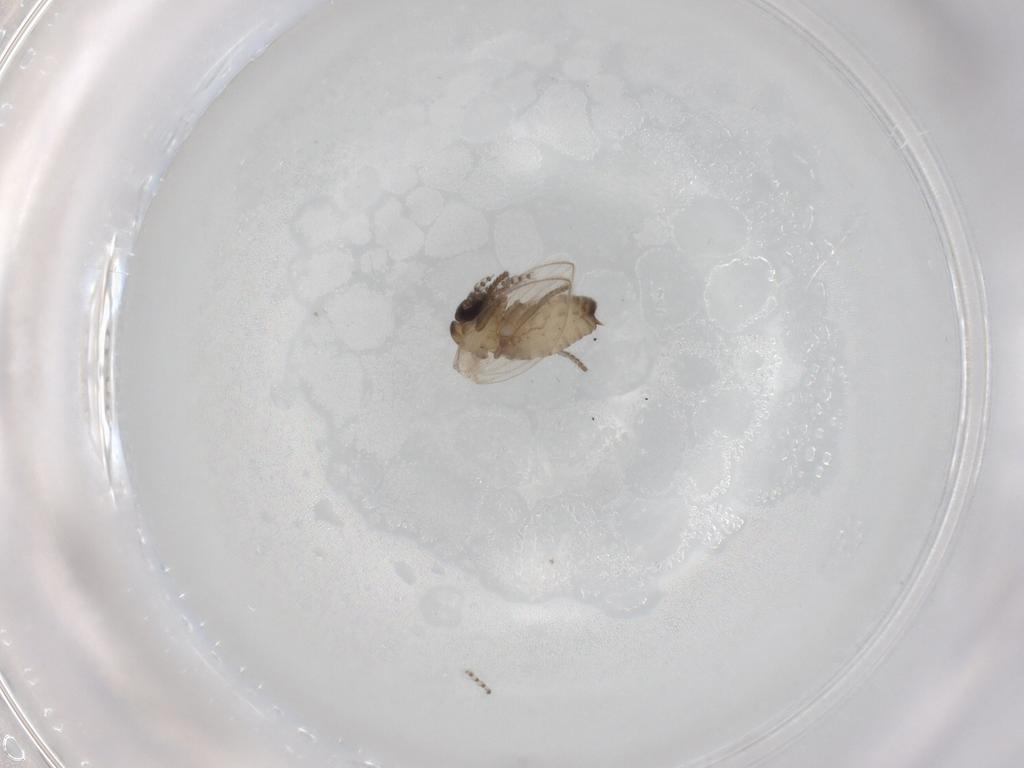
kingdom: Animalia
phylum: Arthropoda
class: Insecta
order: Diptera
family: Psychodidae
